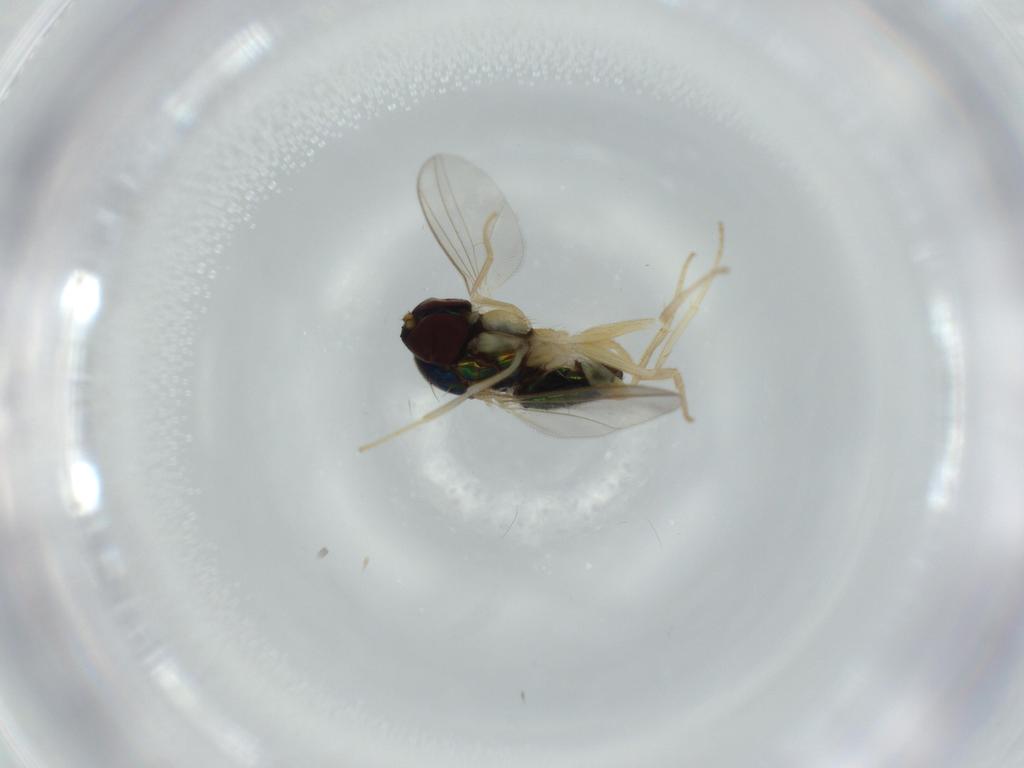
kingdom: Animalia
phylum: Arthropoda
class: Insecta
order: Diptera
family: Dolichopodidae
